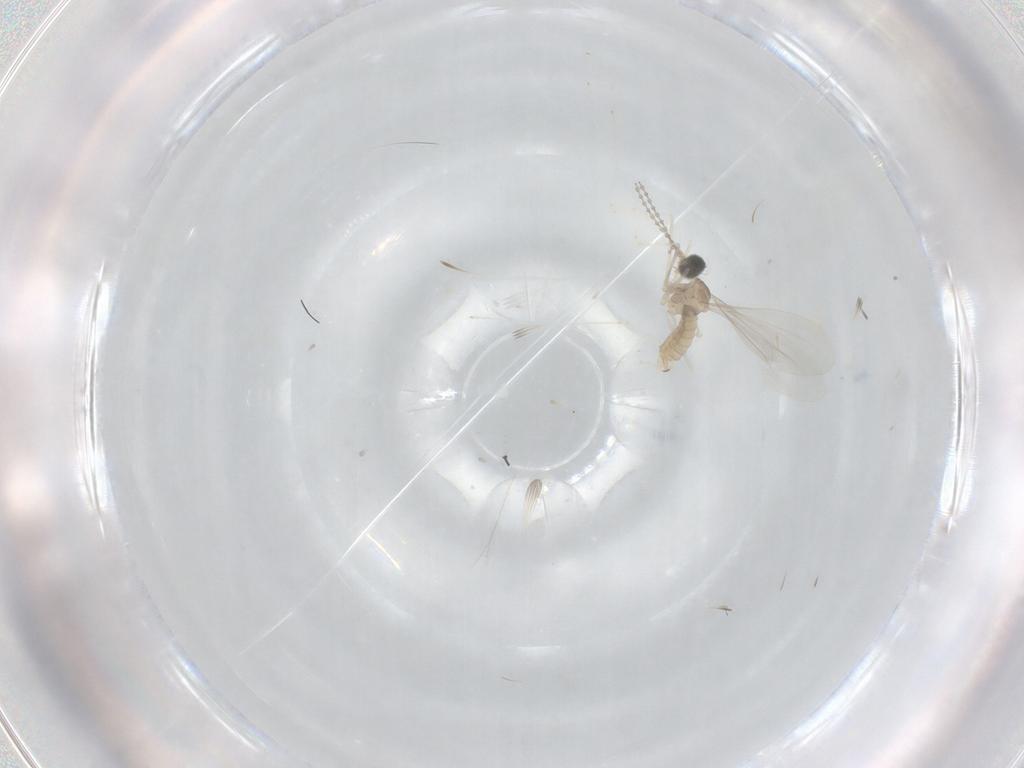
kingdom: Animalia
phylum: Arthropoda
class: Insecta
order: Diptera
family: Cecidomyiidae
